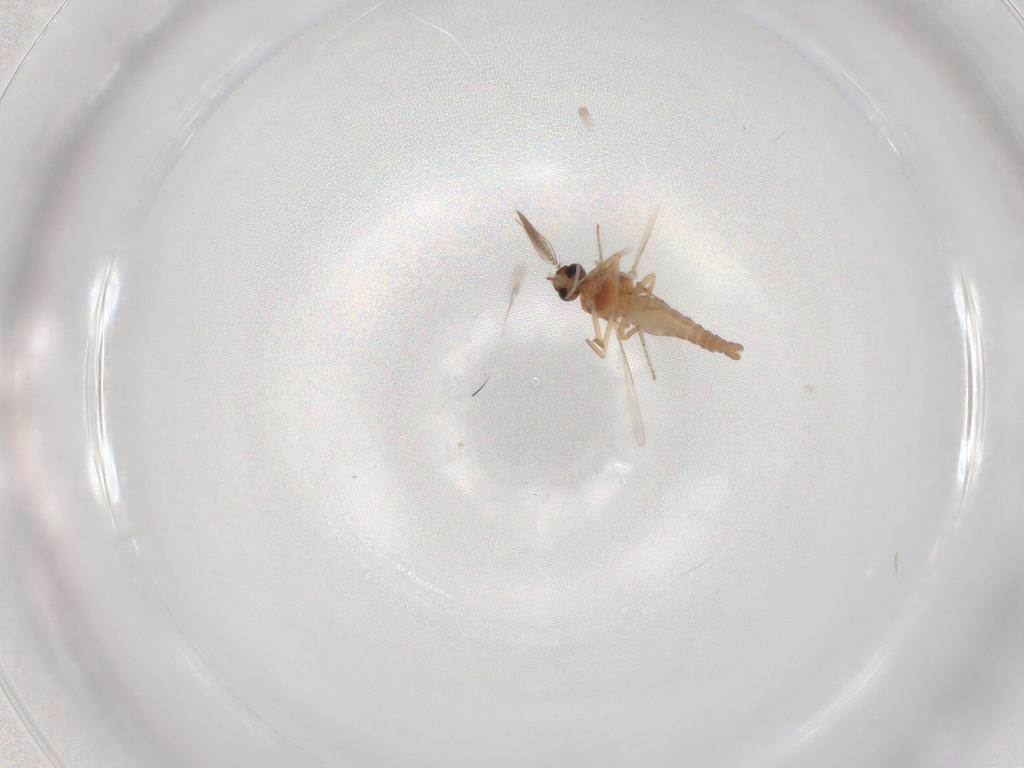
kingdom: Animalia
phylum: Arthropoda
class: Insecta
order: Diptera
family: Ceratopogonidae
